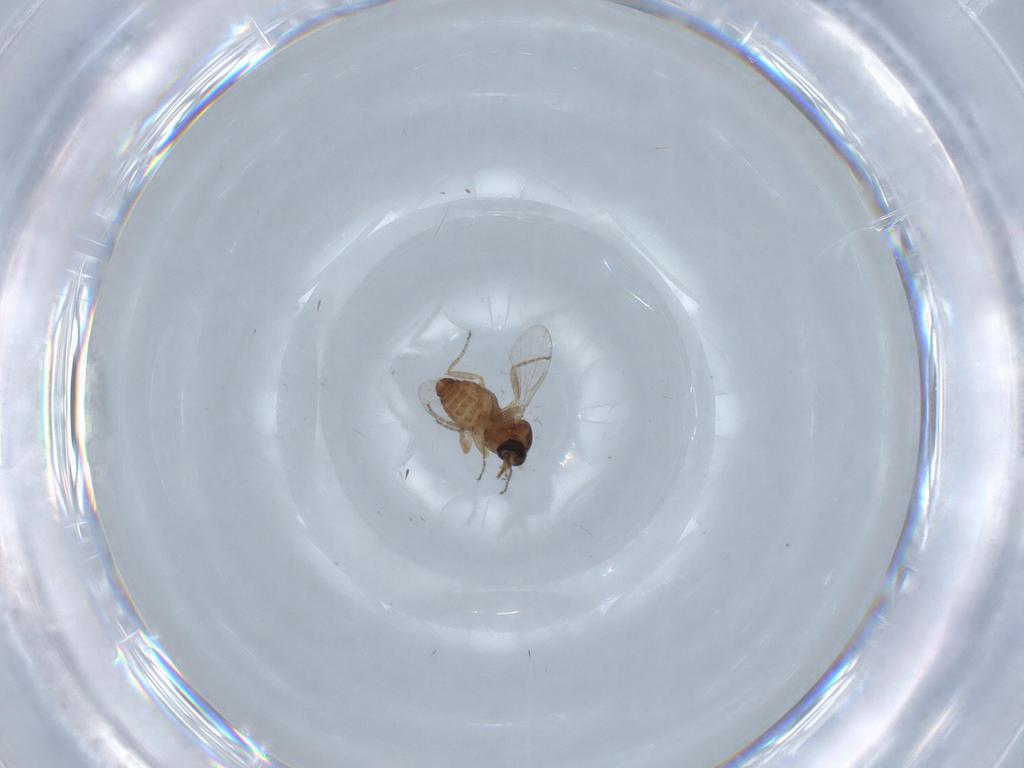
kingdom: Animalia
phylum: Arthropoda
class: Insecta
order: Diptera
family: Ceratopogonidae
